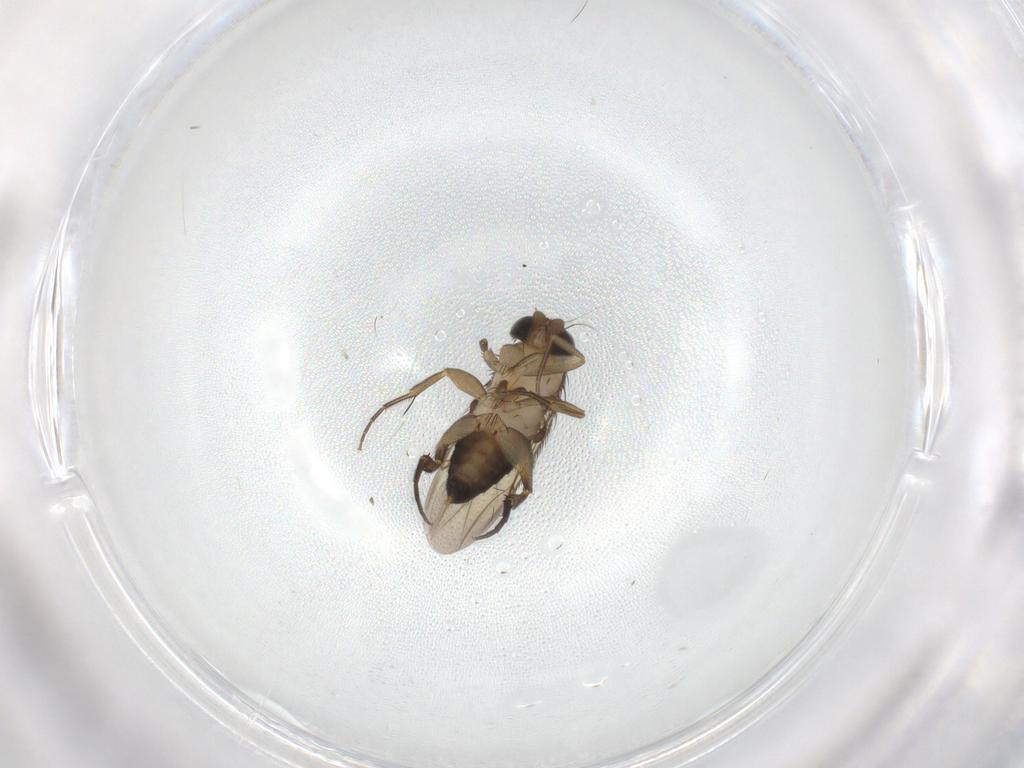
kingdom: Animalia
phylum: Arthropoda
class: Insecta
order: Diptera
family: Phoridae
